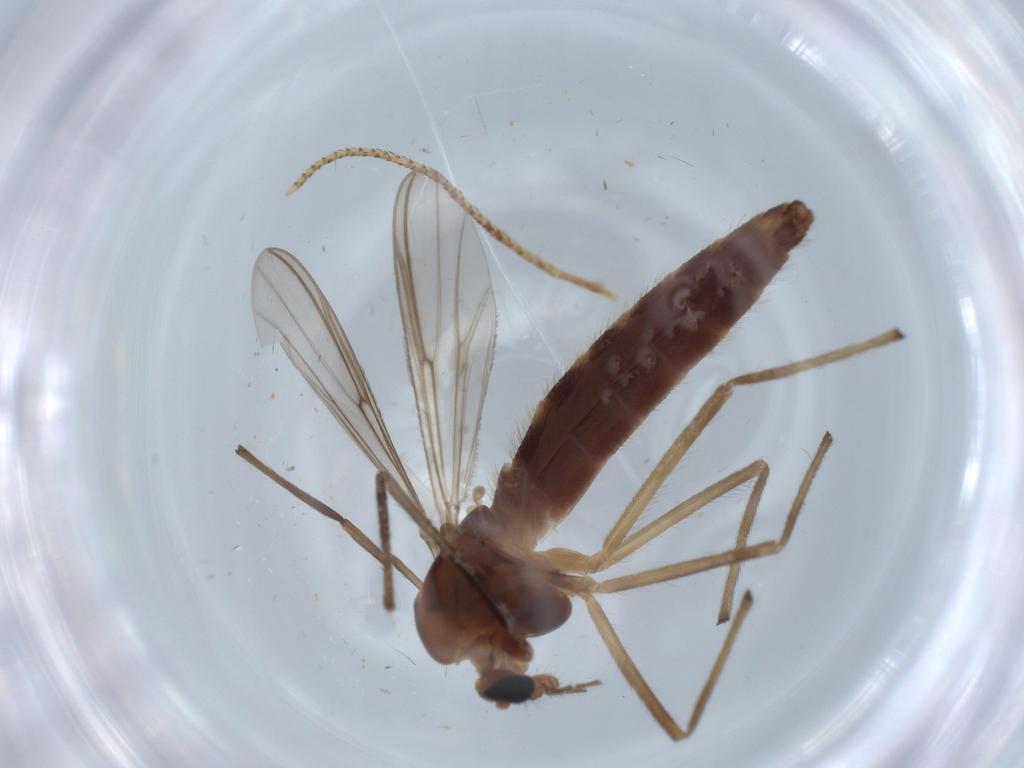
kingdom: Animalia
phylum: Arthropoda
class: Insecta
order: Diptera
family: Chironomidae
